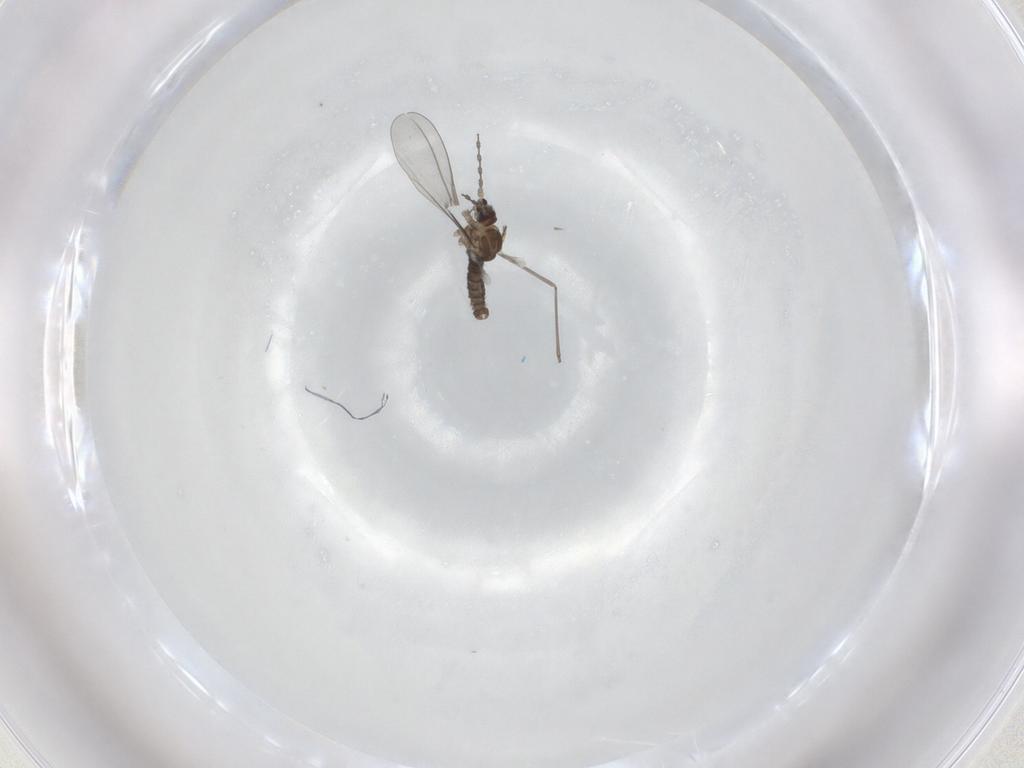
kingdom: Animalia
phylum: Arthropoda
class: Insecta
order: Diptera
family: Cecidomyiidae
